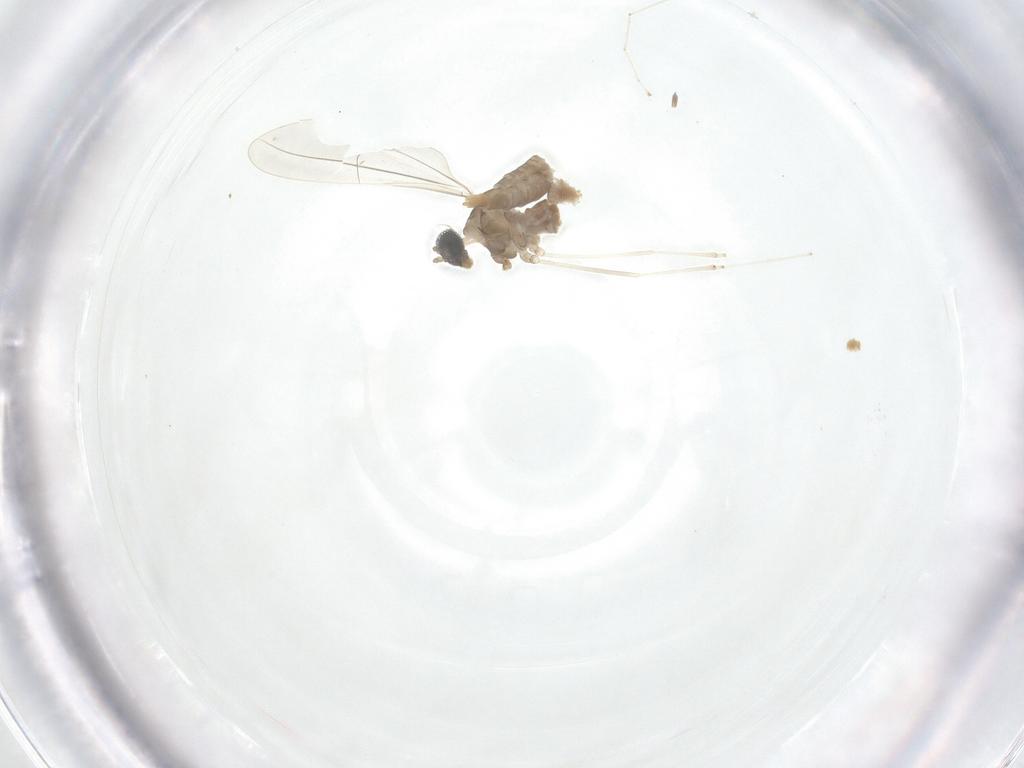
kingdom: Animalia
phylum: Arthropoda
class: Insecta
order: Diptera
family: Cecidomyiidae
